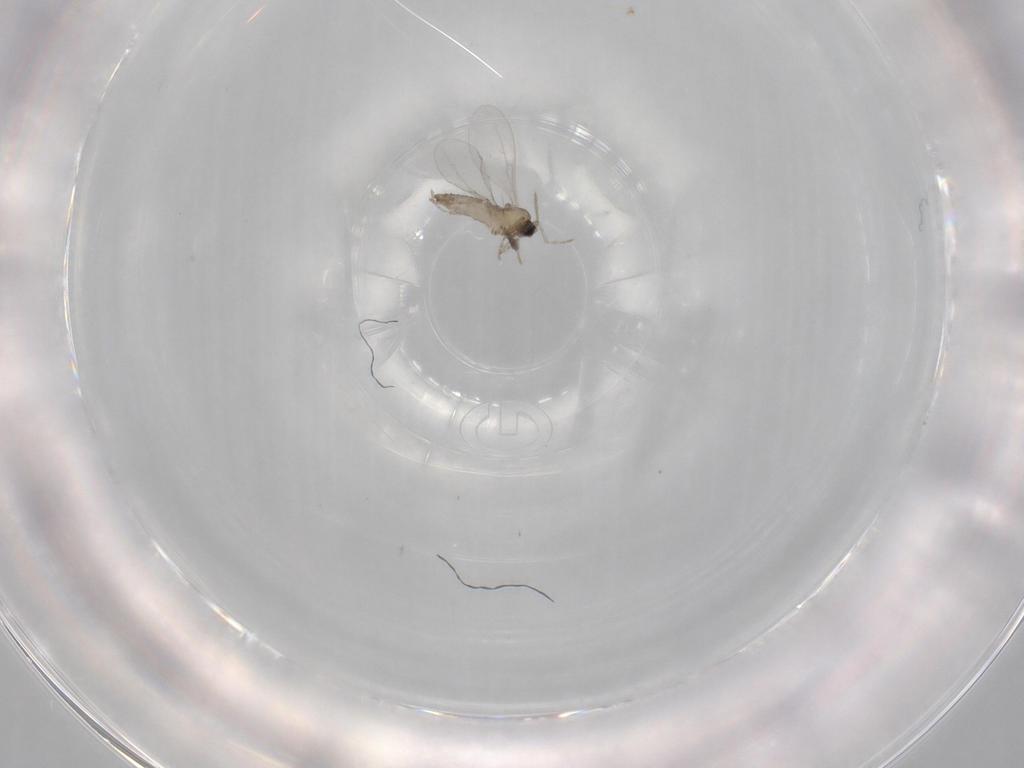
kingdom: Animalia
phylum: Arthropoda
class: Insecta
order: Diptera
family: Cecidomyiidae
